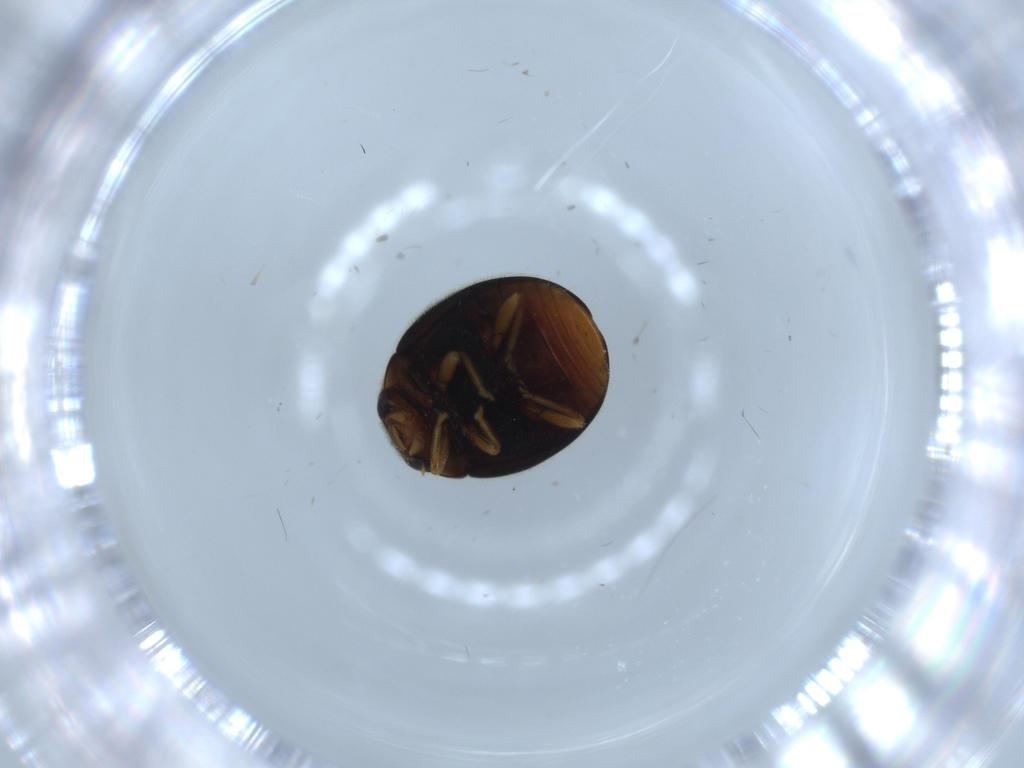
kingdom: Animalia
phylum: Arthropoda
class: Insecta
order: Coleoptera
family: Coccinellidae
